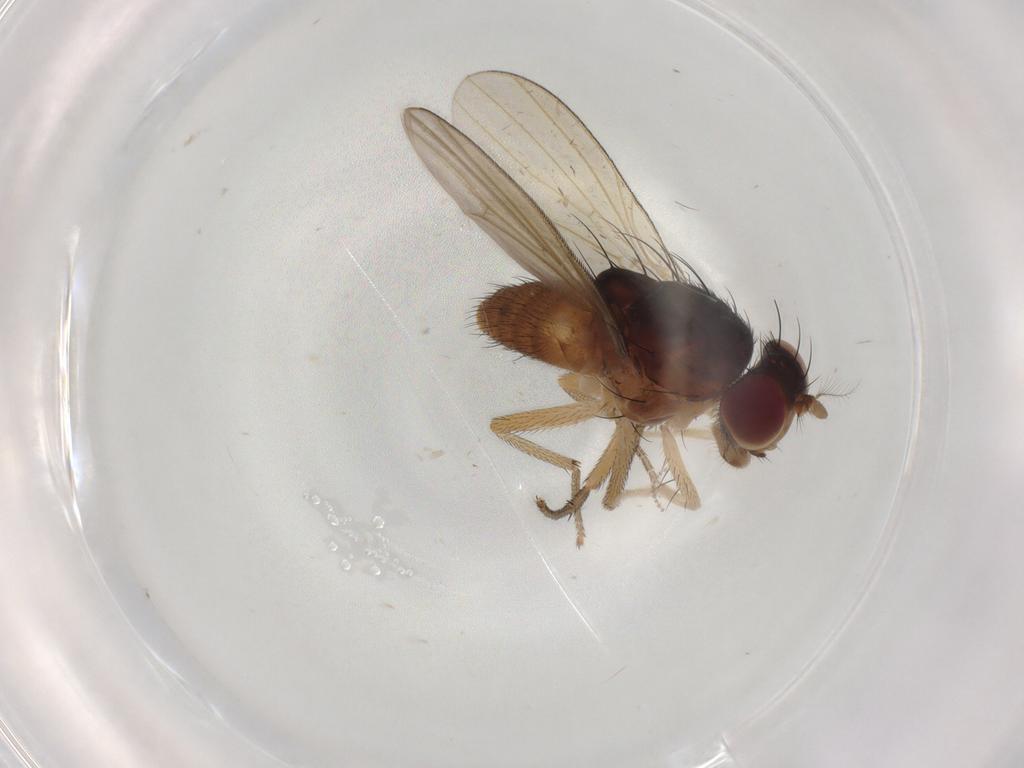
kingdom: Animalia
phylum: Arthropoda
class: Insecta
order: Diptera
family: Lauxaniidae
